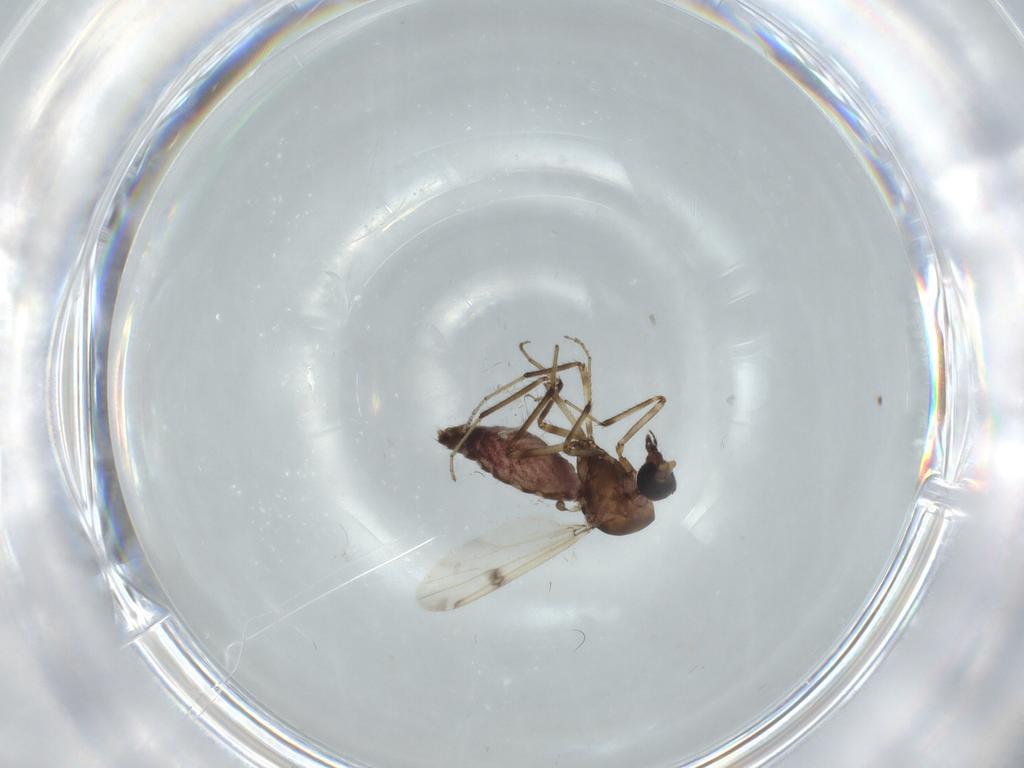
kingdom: Animalia
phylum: Arthropoda
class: Insecta
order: Diptera
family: Ceratopogonidae
